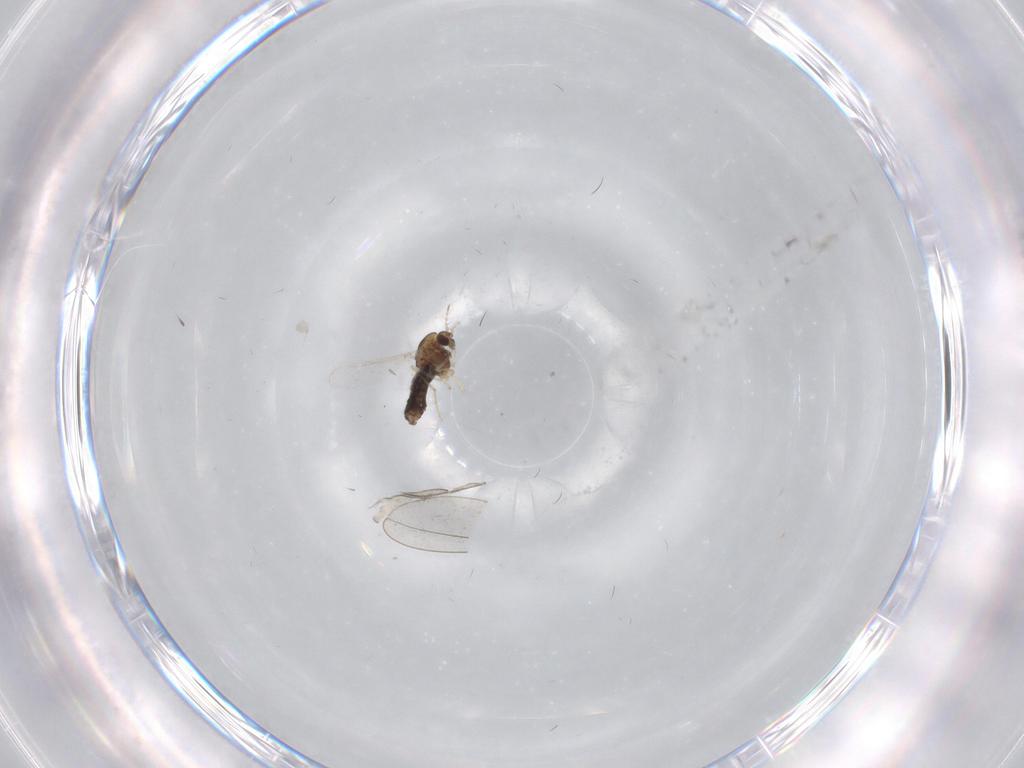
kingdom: Animalia
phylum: Arthropoda
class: Insecta
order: Diptera
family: Chironomidae
